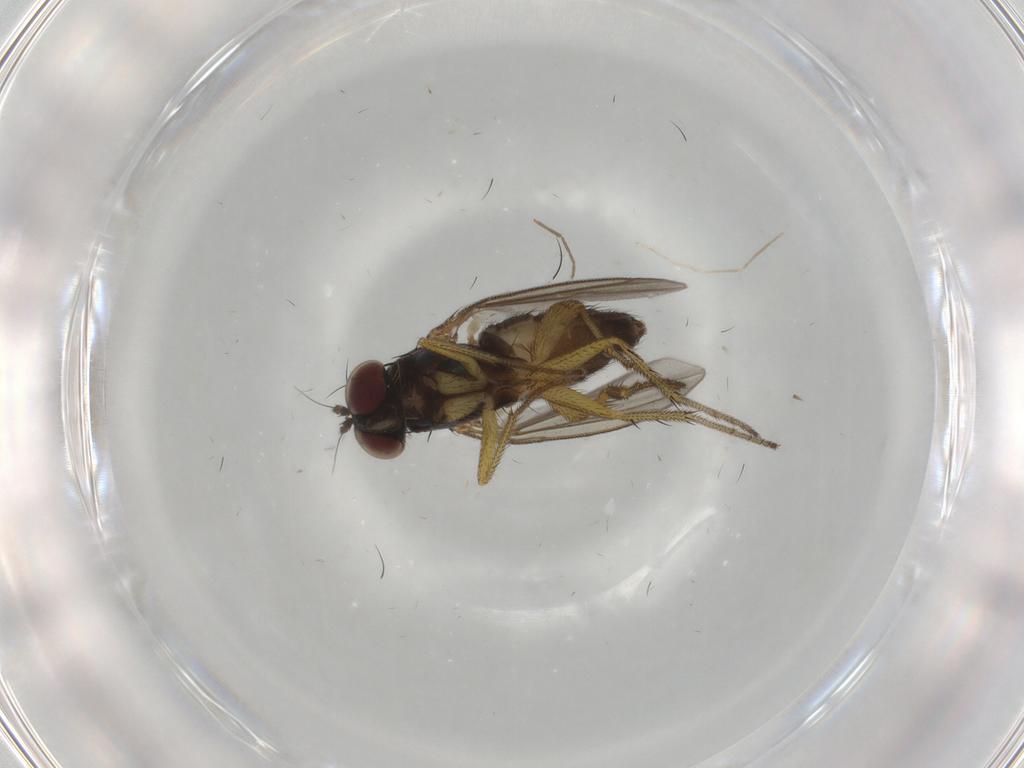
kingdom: Animalia
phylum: Arthropoda
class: Insecta
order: Diptera
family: Dolichopodidae
